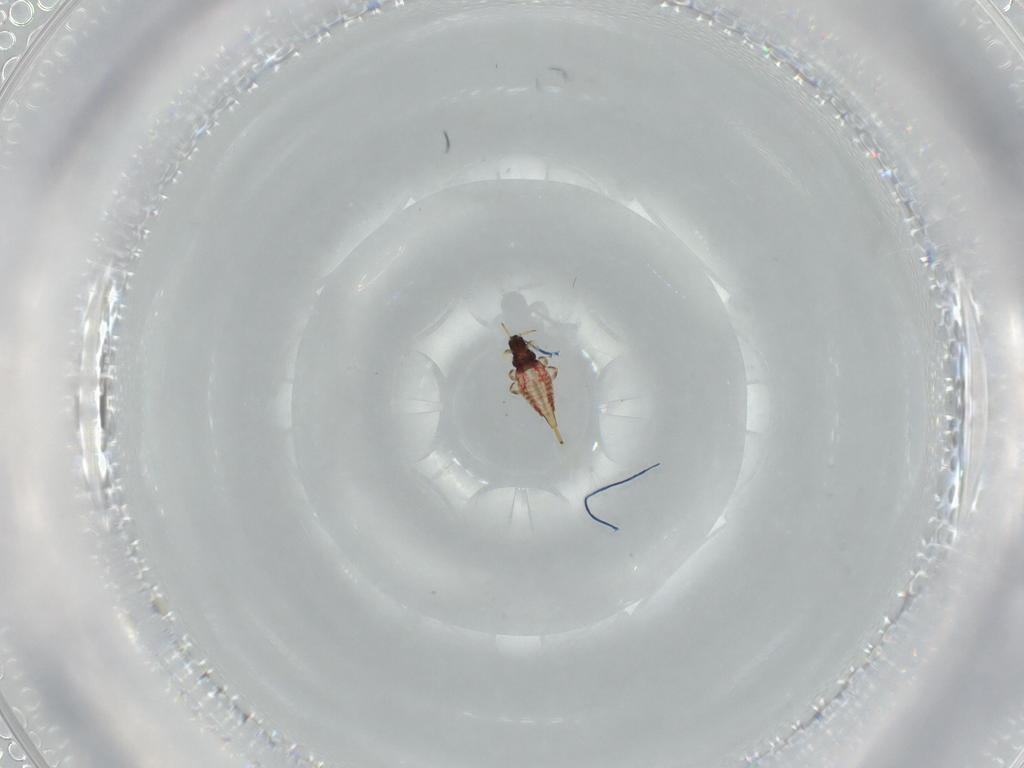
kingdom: Animalia
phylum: Arthropoda
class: Insecta
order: Thysanoptera
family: Phlaeothripidae
